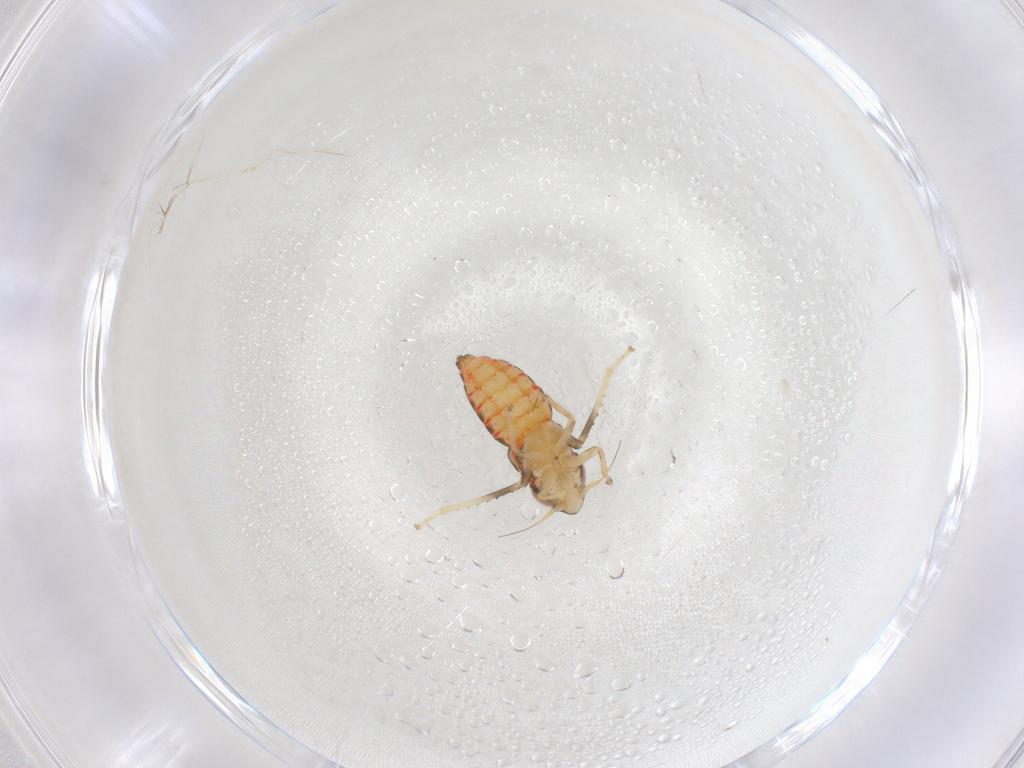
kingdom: Animalia
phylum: Arthropoda
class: Insecta
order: Hemiptera
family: Cicadellidae
